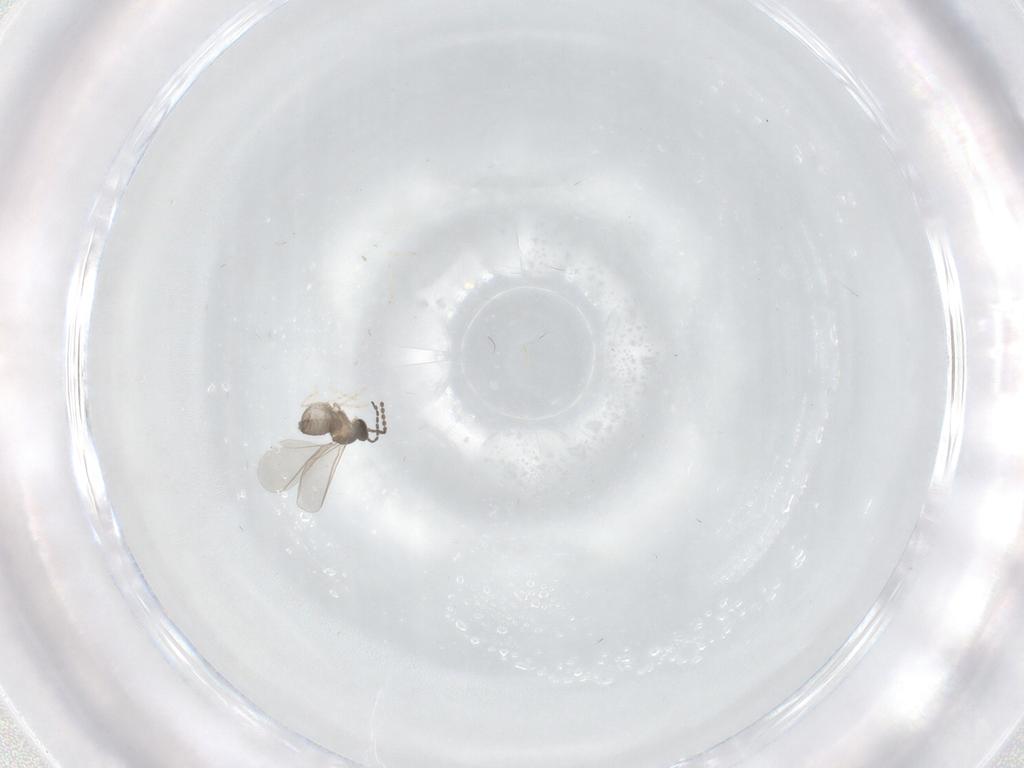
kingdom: Animalia
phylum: Arthropoda
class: Insecta
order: Diptera
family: Cecidomyiidae
